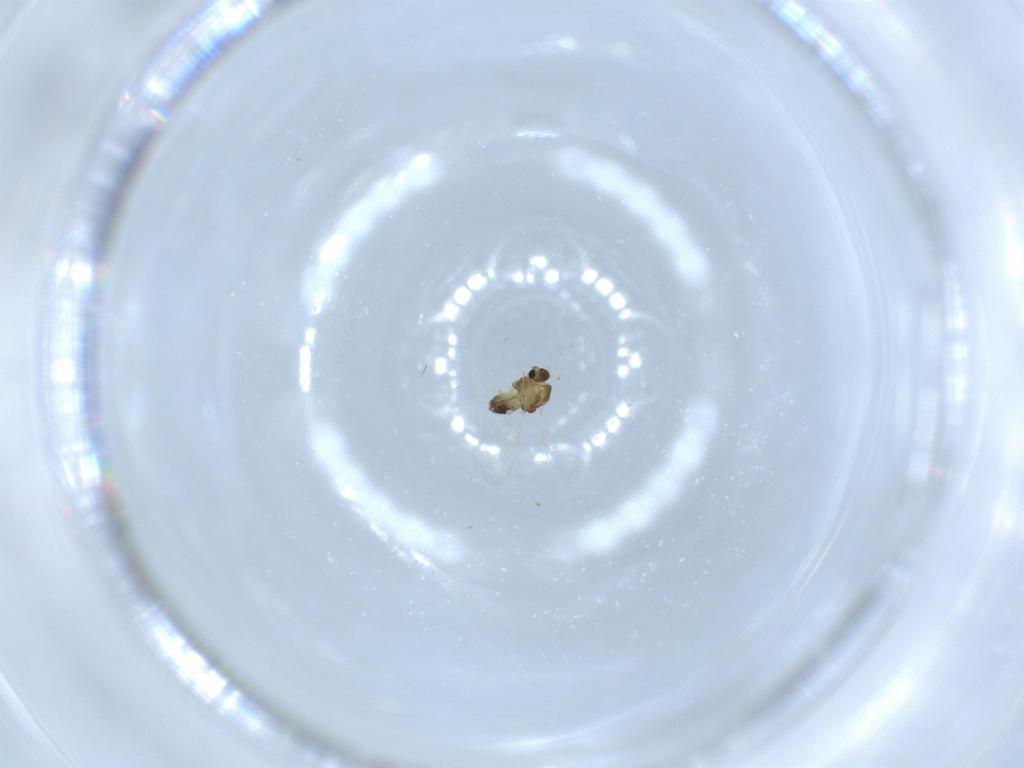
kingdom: Animalia
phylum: Arthropoda
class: Insecta
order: Diptera
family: Chironomidae
